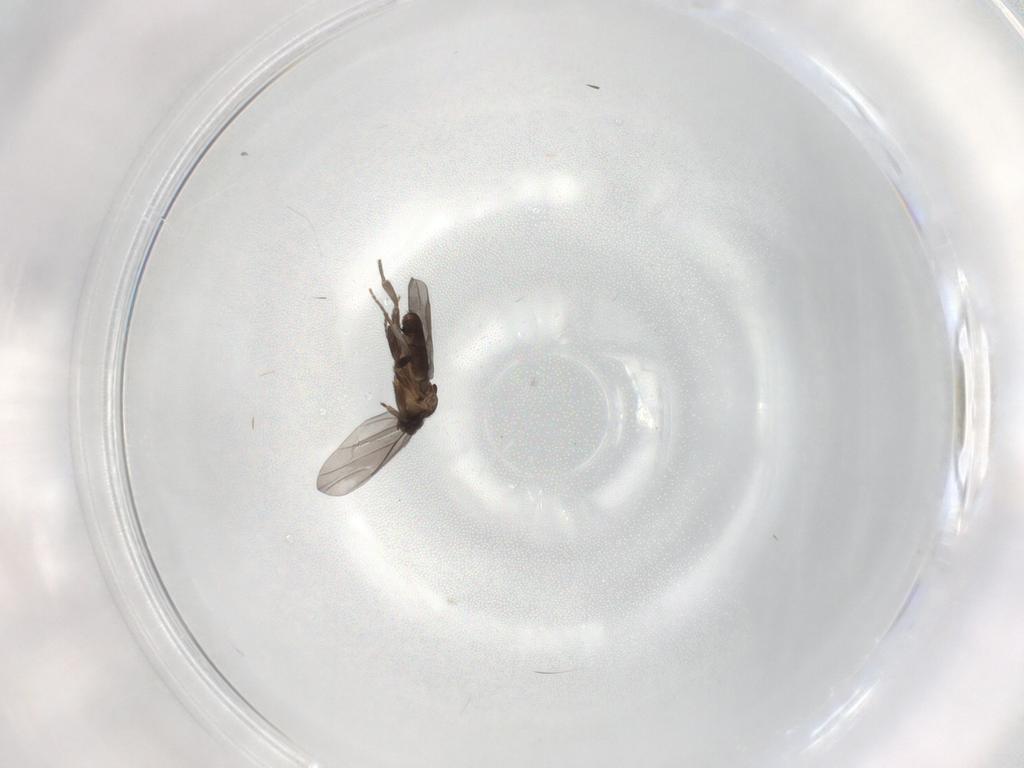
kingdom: Animalia
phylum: Arthropoda
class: Insecta
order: Diptera
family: Phoridae
